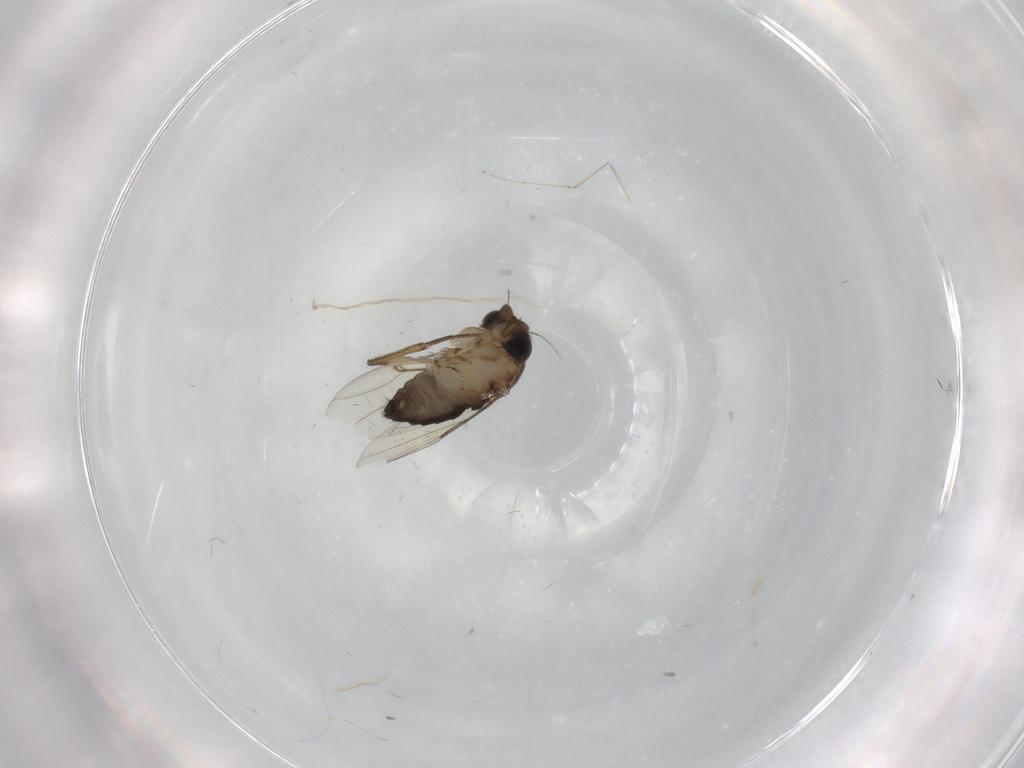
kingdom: Animalia
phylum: Arthropoda
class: Insecta
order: Diptera
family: Phoridae
